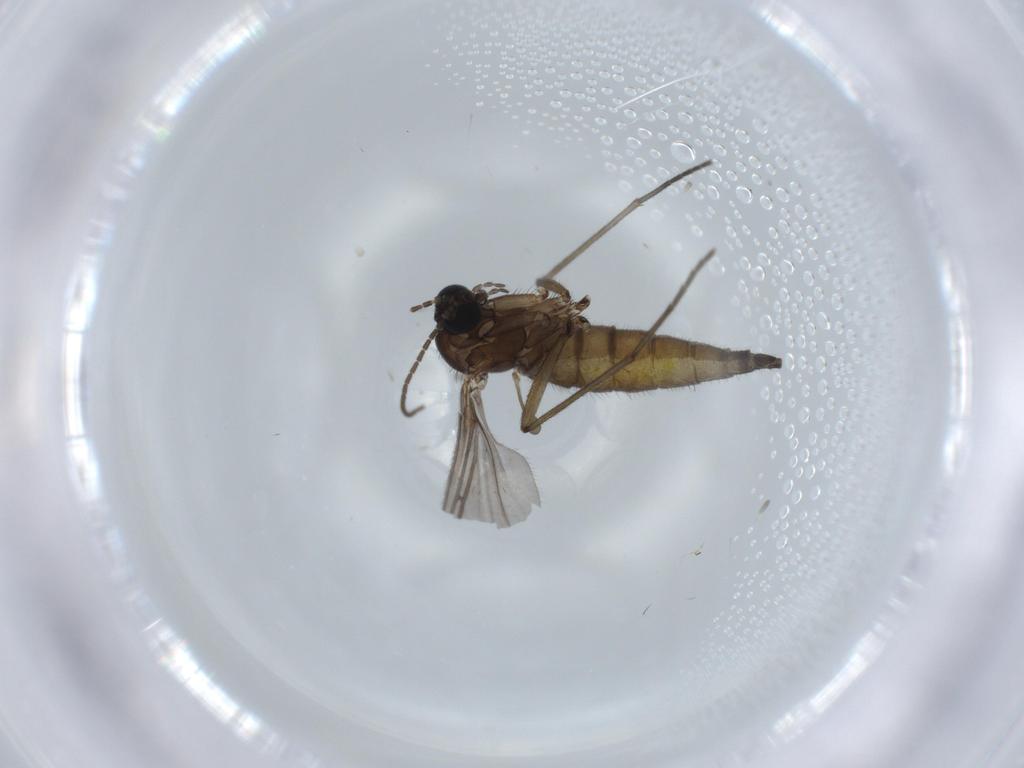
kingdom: Animalia
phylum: Arthropoda
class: Insecta
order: Diptera
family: Sciaridae
